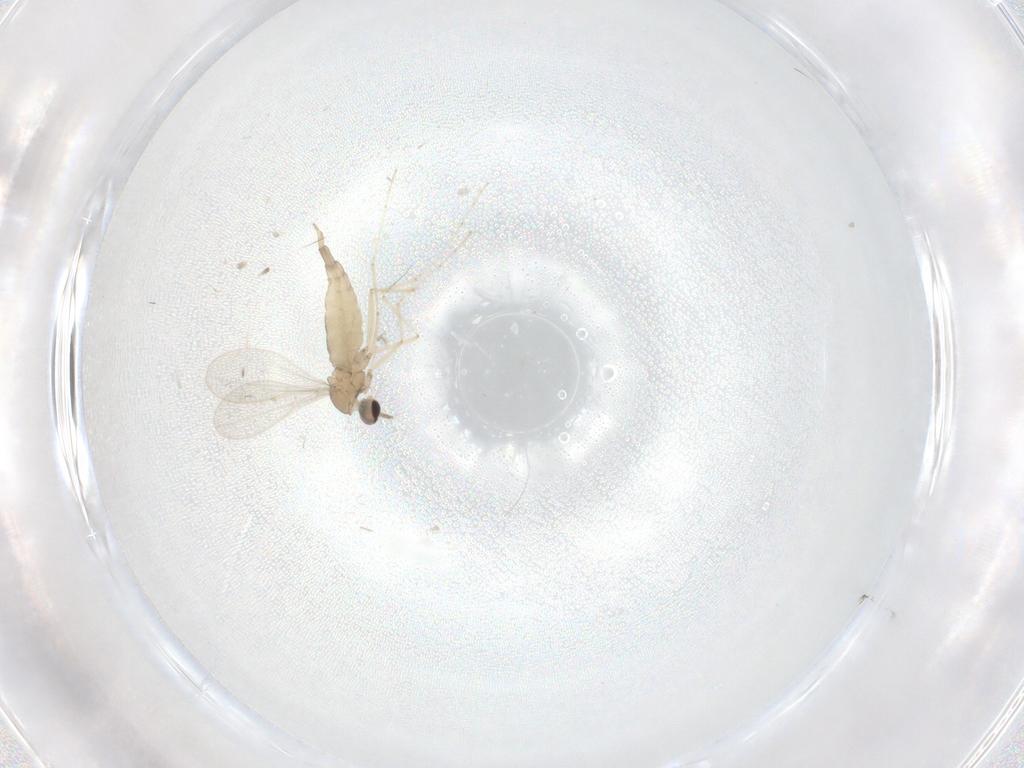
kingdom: Animalia
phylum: Arthropoda
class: Insecta
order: Diptera
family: Cecidomyiidae
